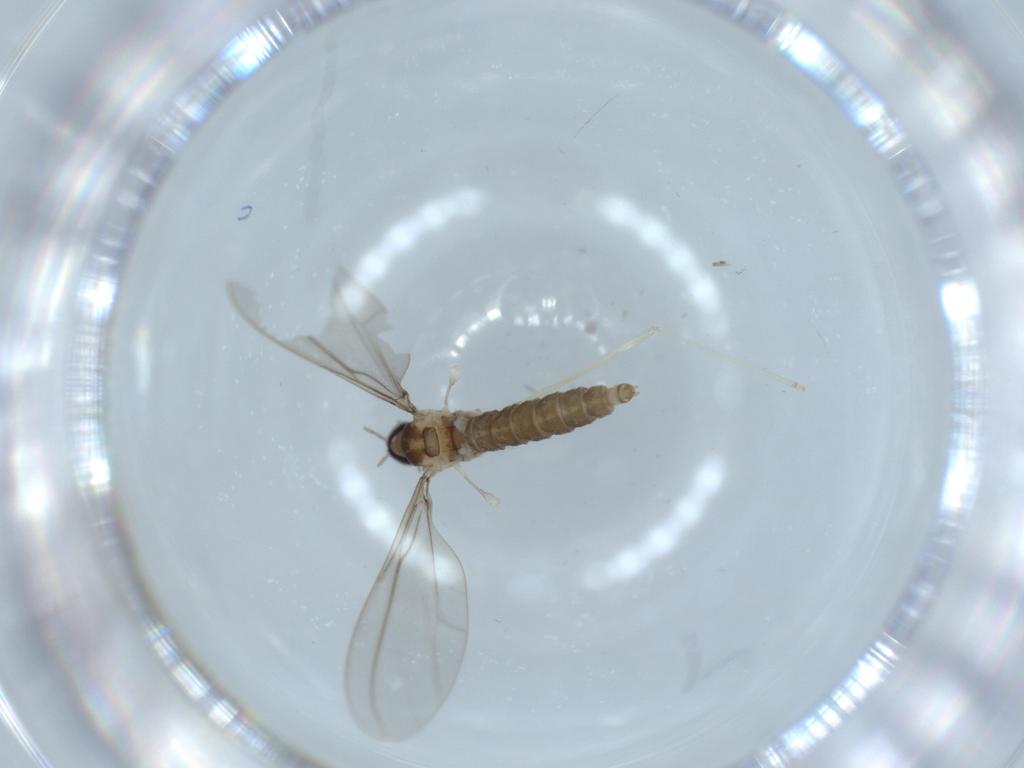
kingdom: Animalia
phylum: Arthropoda
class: Insecta
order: Diptera
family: Cecidomyiidae
